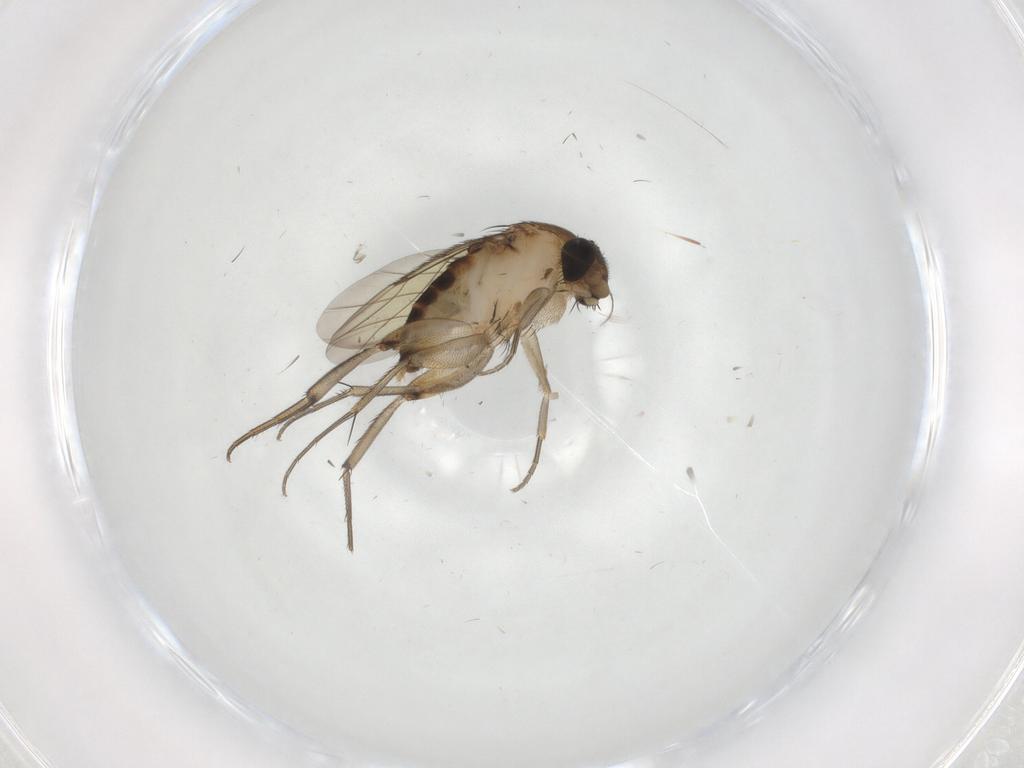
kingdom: Animalia
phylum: Arthropoda
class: Insecta
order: Diptera
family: Phoridae
